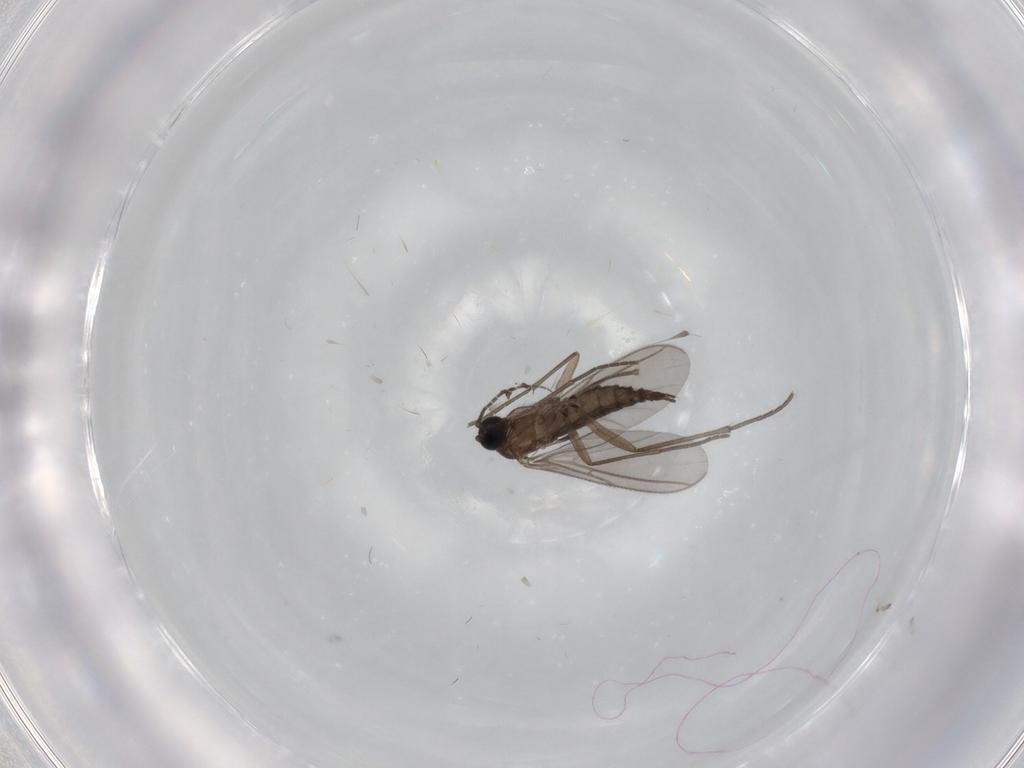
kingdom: Animalia
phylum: Arthropoda
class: Insecta
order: Diptera
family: Sciaridae
